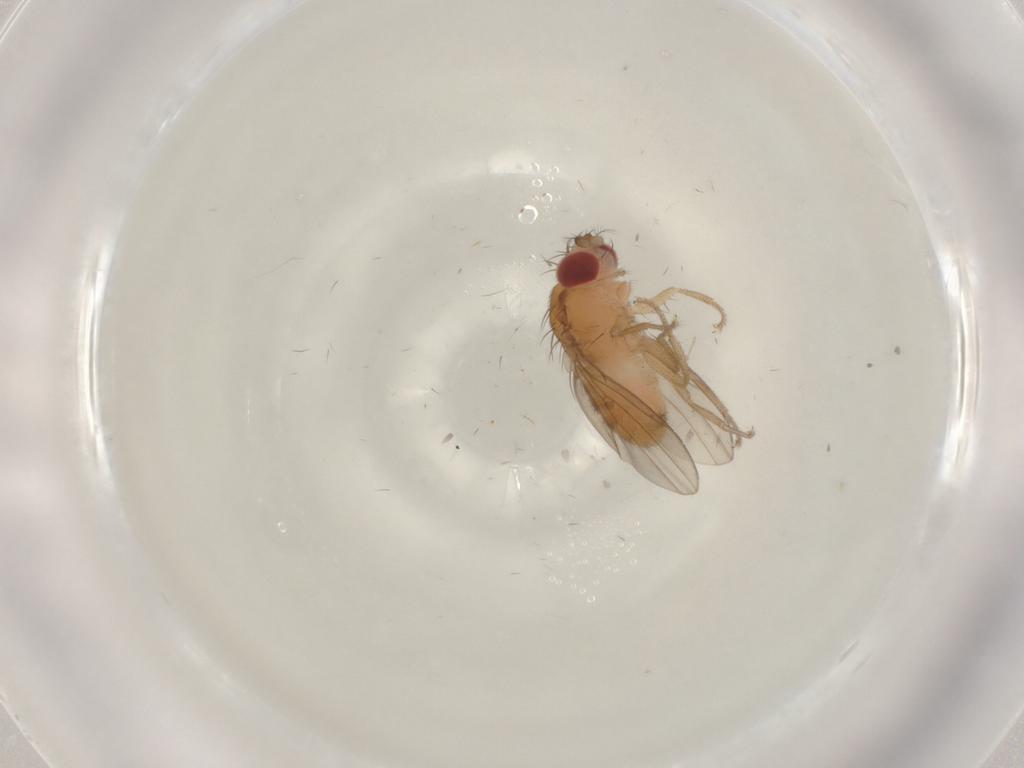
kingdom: Animalia
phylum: Arthropoda
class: Insecta
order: Diptera
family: Drosophilidae
